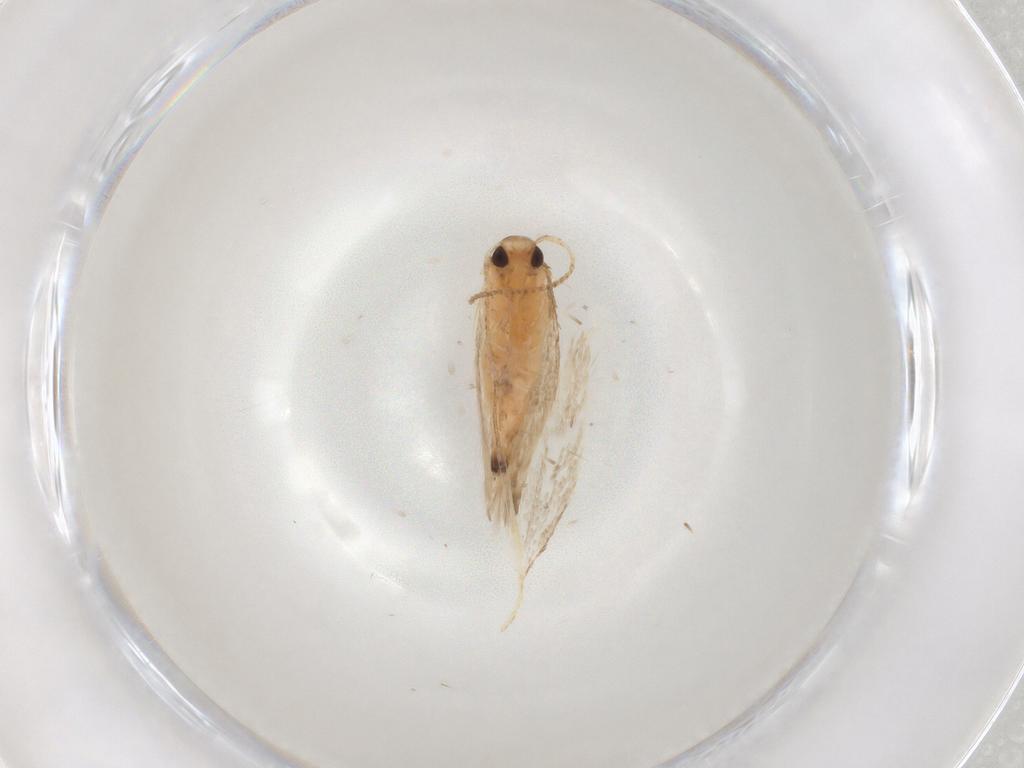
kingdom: Animalia
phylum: Arthropoda
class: Insecta
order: Lepidoptera
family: Gelechiidae
